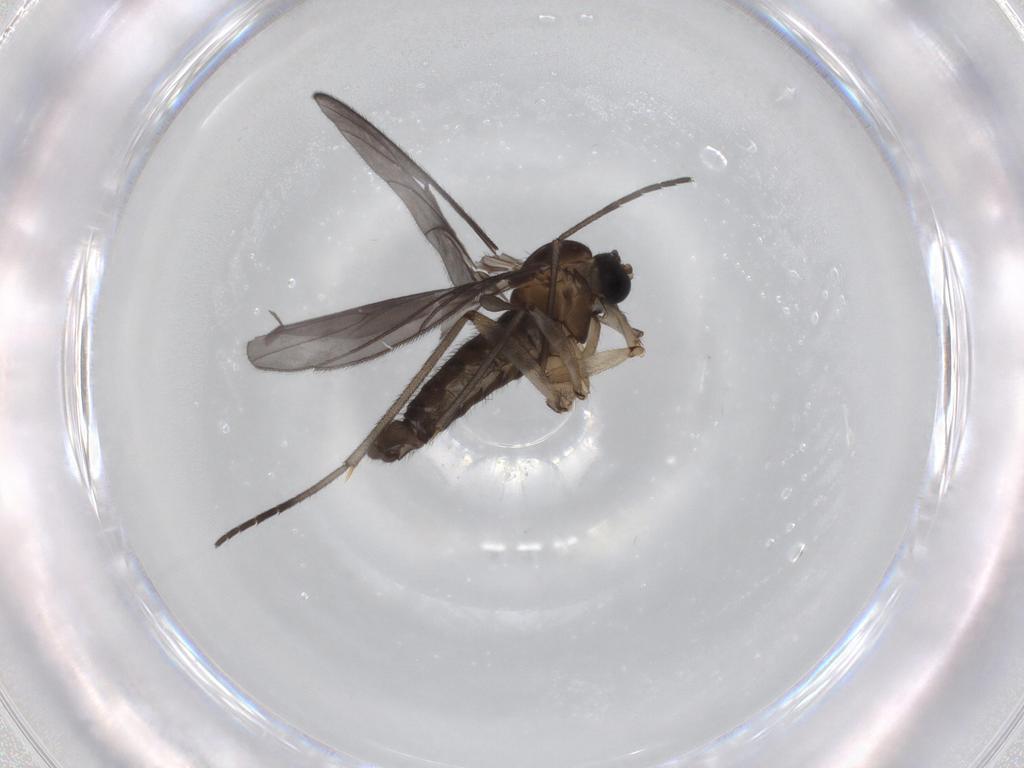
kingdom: Animalia
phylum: Arthropoda
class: Insecta
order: Diptera
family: Sciaridae
